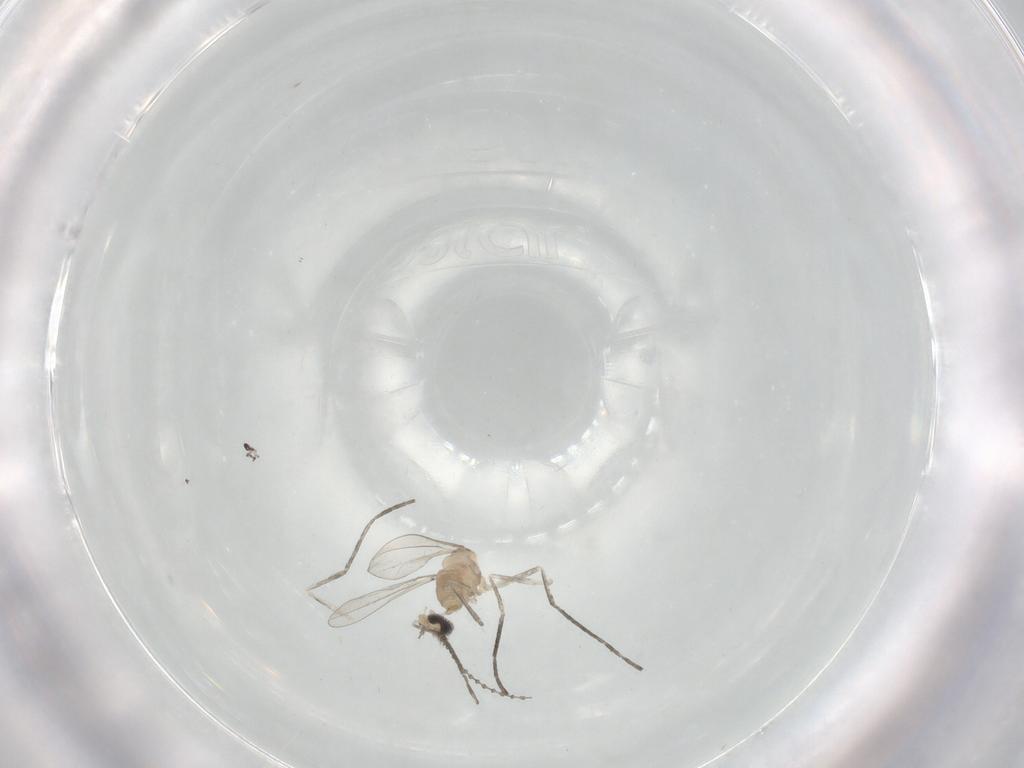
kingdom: Animalia
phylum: Arthropoda
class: Insecta
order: Diptera
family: Cecidomyiidae
